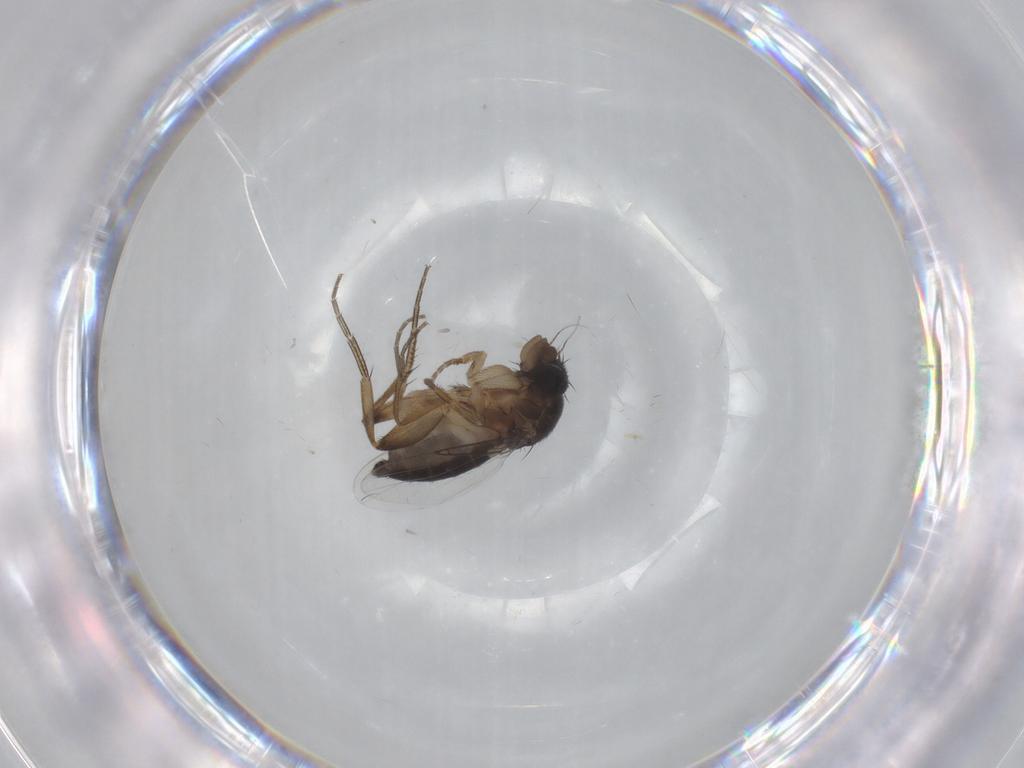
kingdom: Animalia
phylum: Arthropoda
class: Insecta
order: Diptera
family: Phoridae
